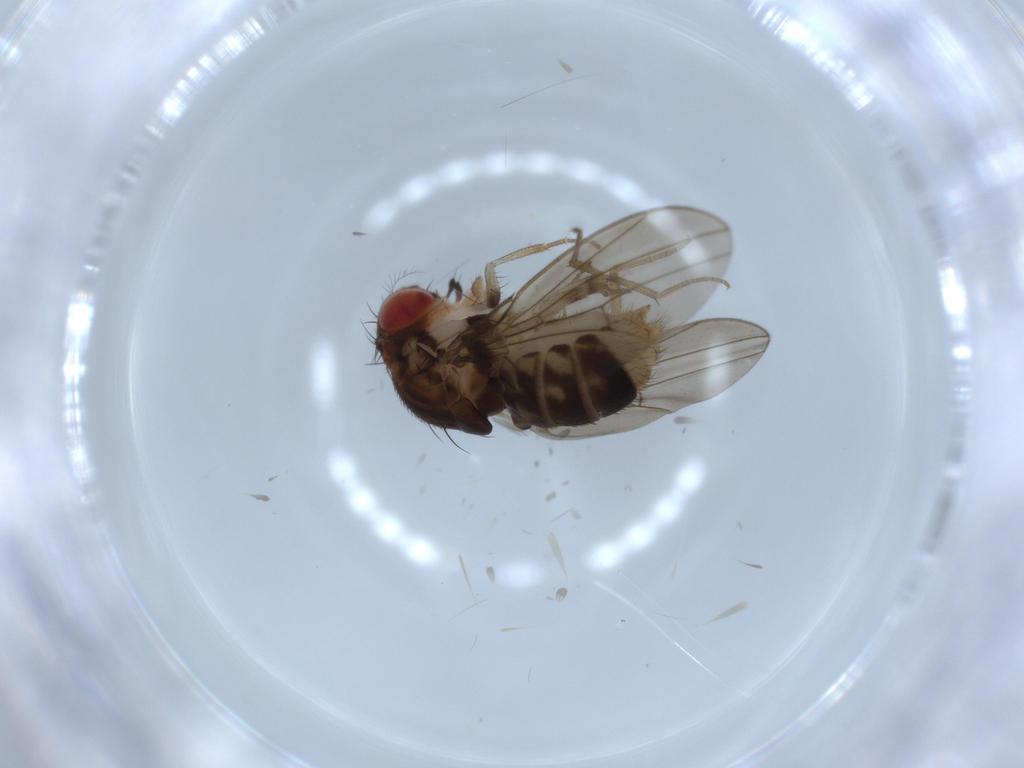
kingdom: Animalia
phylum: Arthropoda
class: Insecta
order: Diptera
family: Drosophilidae
